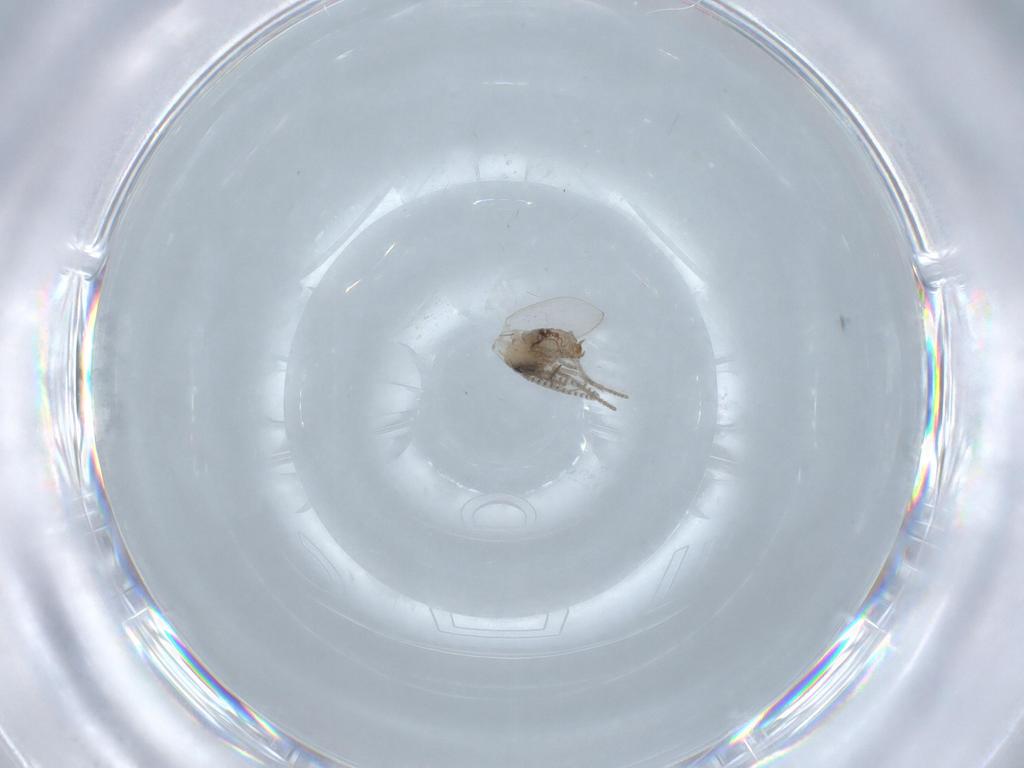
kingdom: Animalia
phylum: Arthropoda
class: Insecta
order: Diptera
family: Psychodidae
